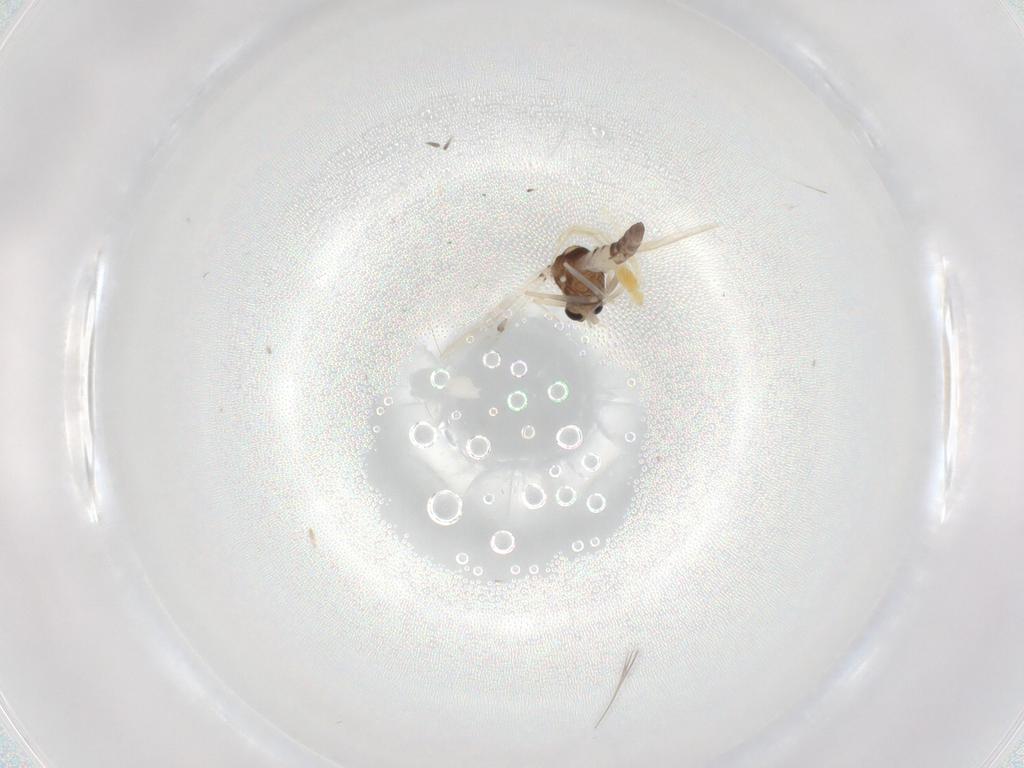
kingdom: Animalia
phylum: Arthropoda
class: Insecta
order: Diptera
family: Chironomidae
